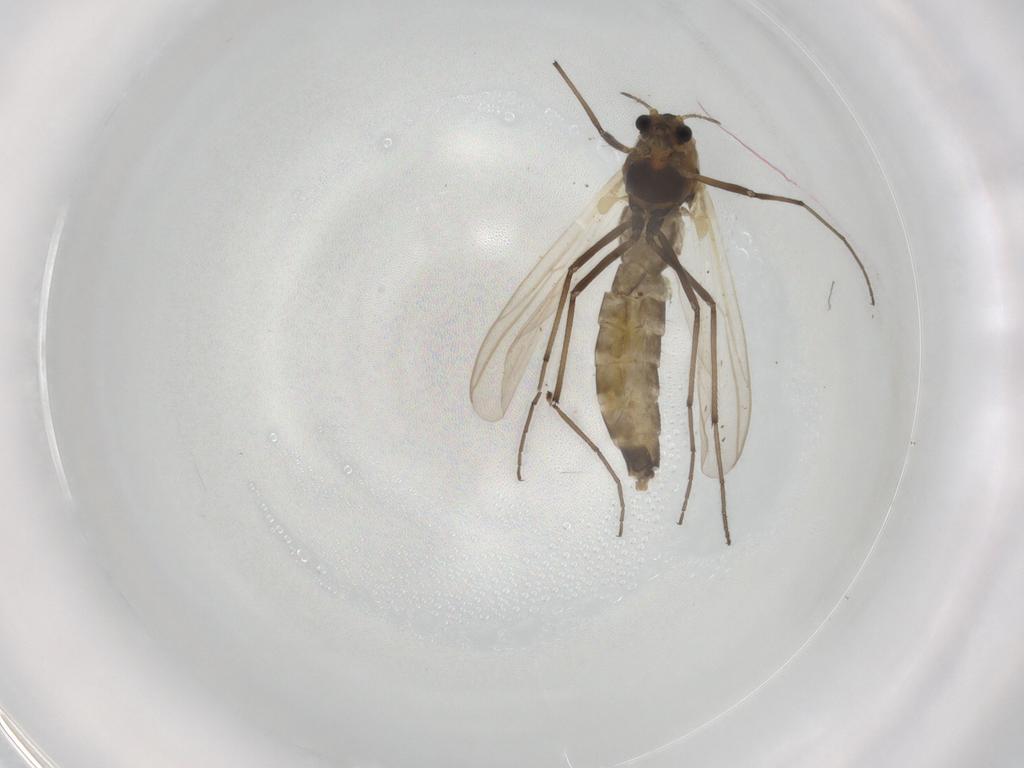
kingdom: Animalia
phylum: Arthropoda
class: Insecta
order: Diptera
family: Chironomidae
